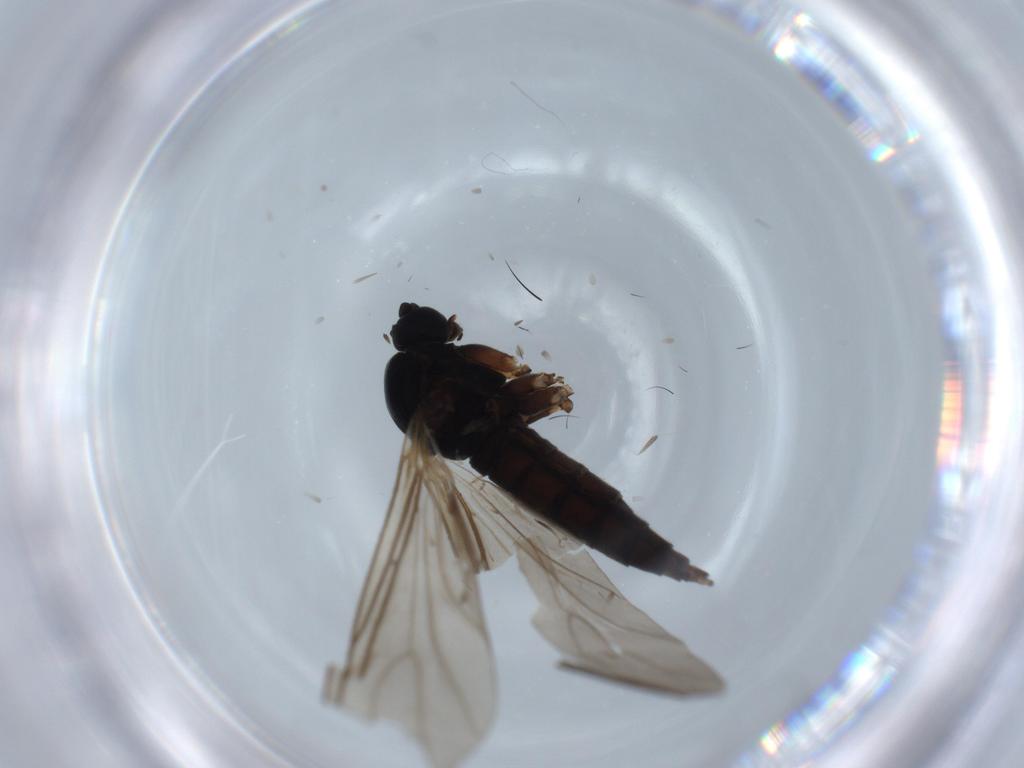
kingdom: Animalia
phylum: Arthropoda
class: Insecta
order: Diptera
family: Sciaridae
